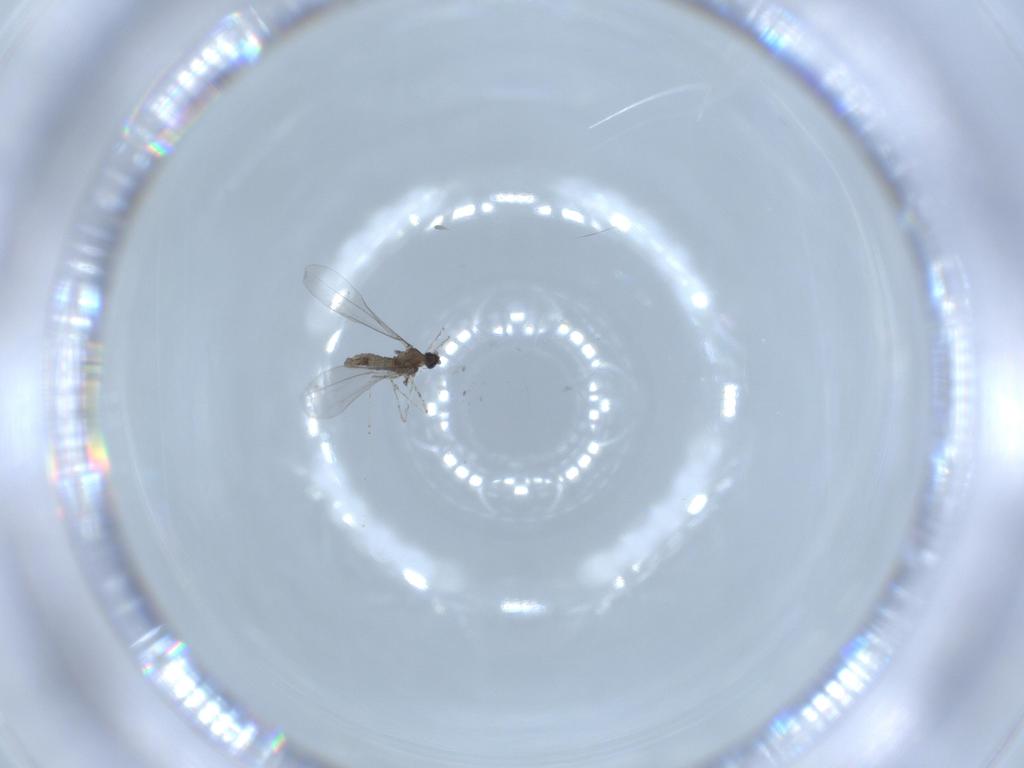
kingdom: Animalia
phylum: Arthropoda
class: Insecta
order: Diptera
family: Cecidomyiidae
